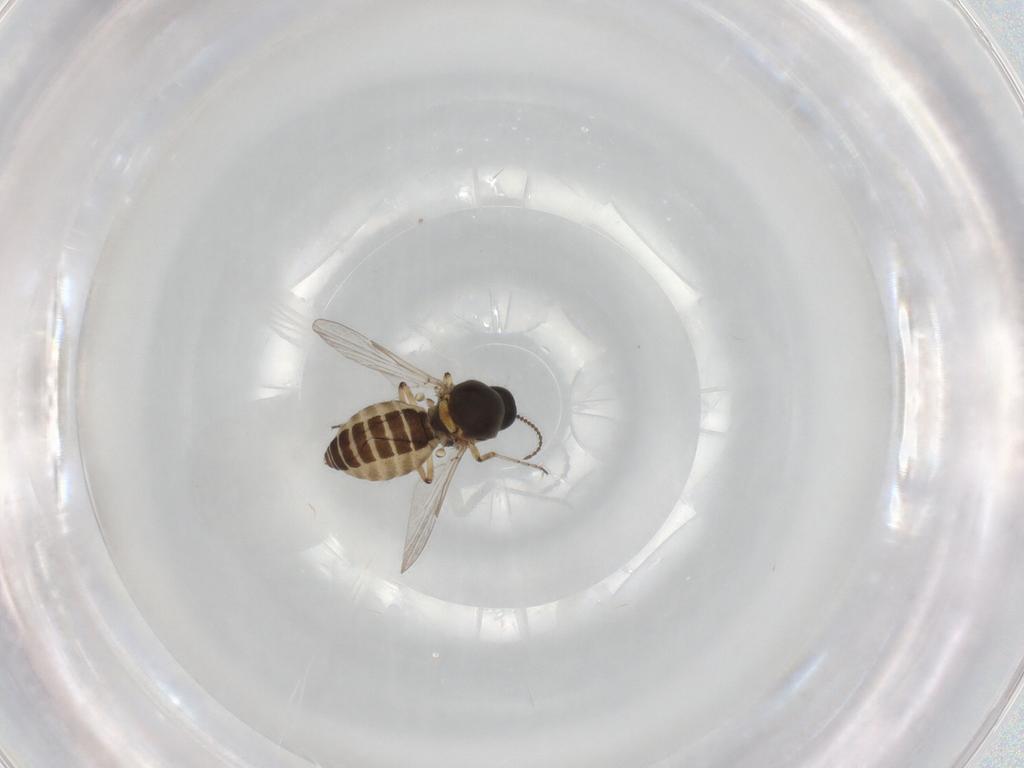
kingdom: Animalia
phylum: Arthropoda
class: Insecta
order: Diptera
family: Ceratopogonidae
